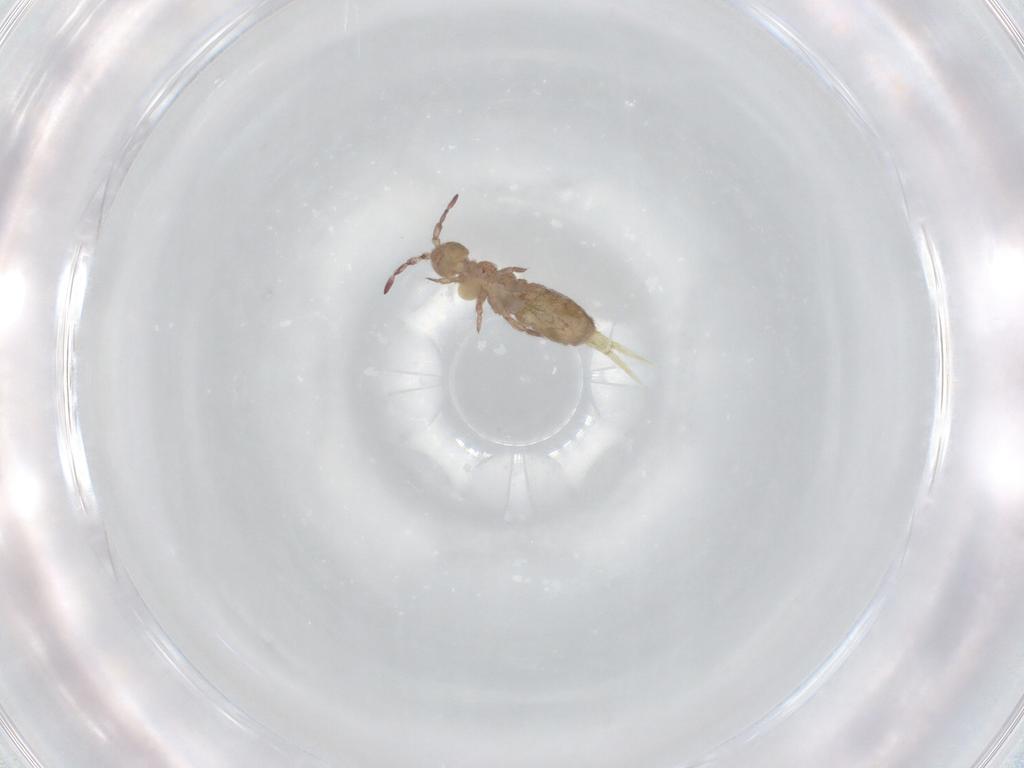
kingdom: Animalia
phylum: Arthropoda
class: Collembola
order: Entomobryomorpha
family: Isotomidae
